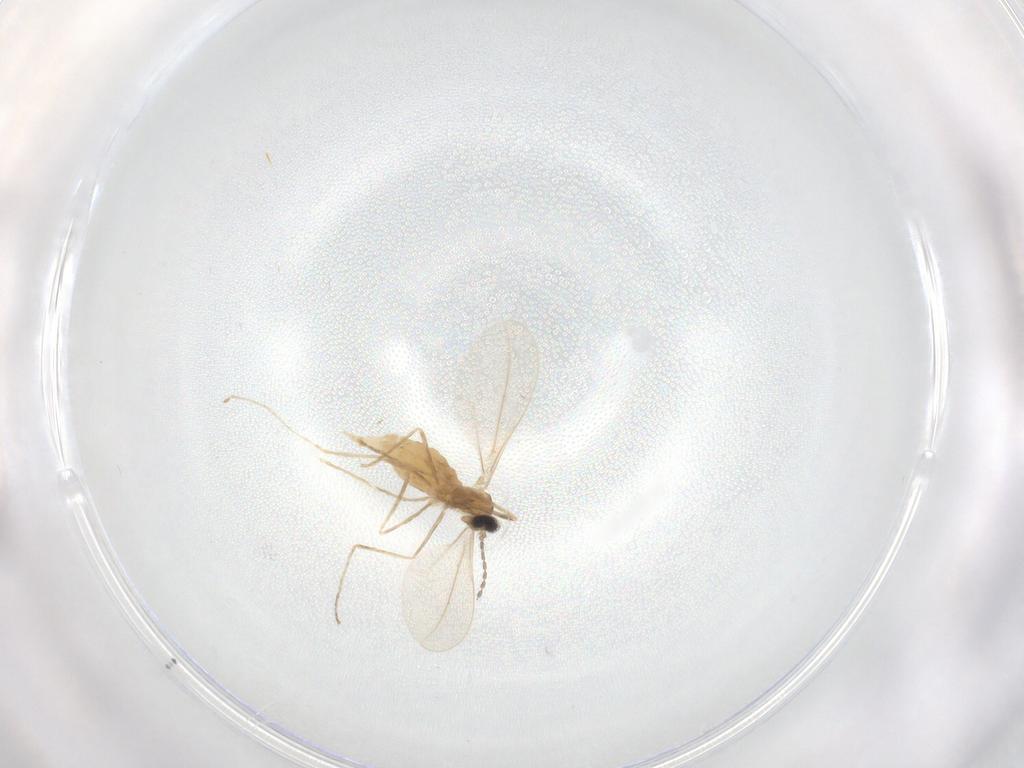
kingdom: Animalia
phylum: Arthropoda
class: Insecta
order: Diptera
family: Cecidomyiidae
